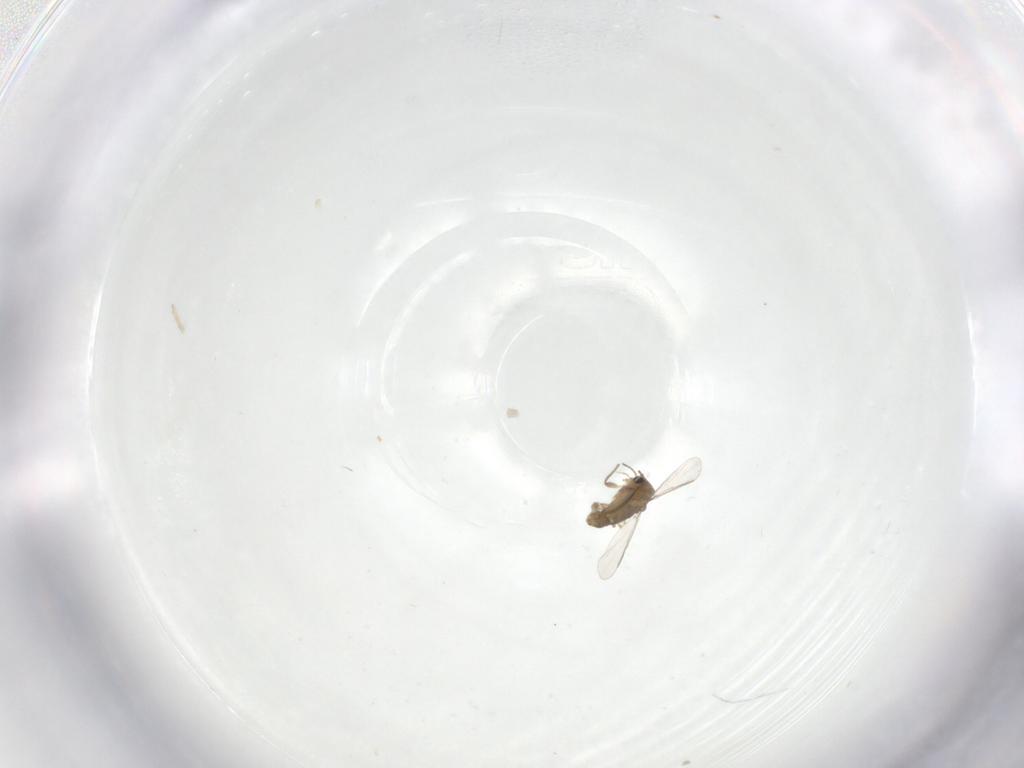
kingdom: Animalia
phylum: Arthropoda
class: Insecta
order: Diptera
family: Chironomidae
